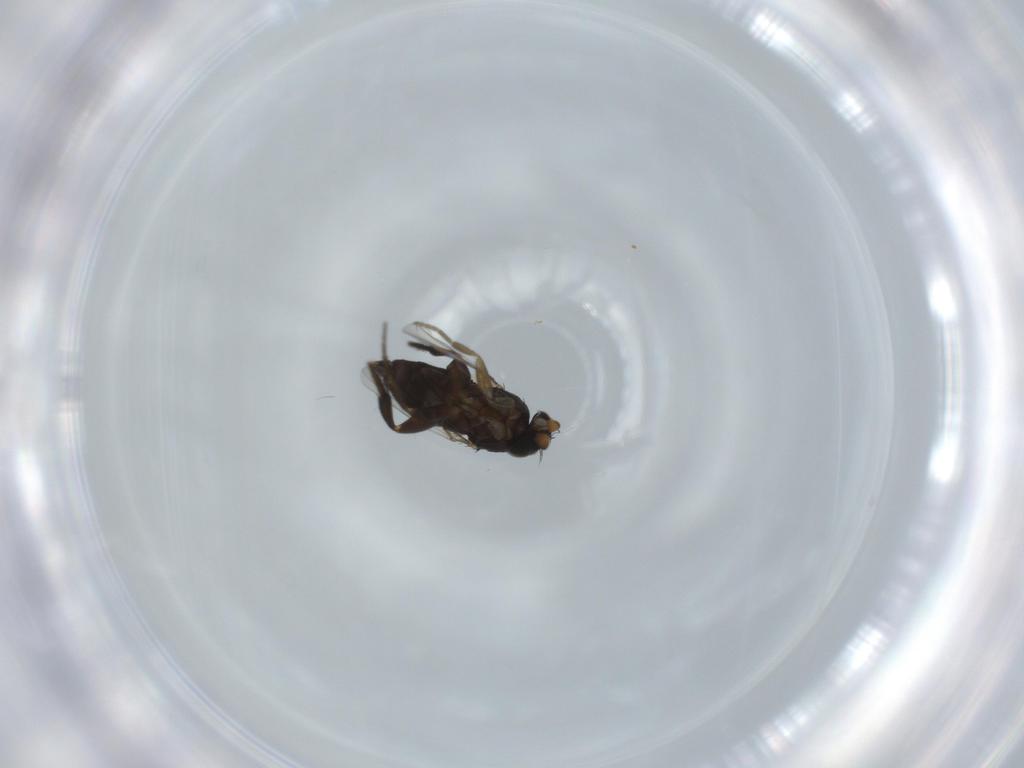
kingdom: Animalia
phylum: Arthropoda
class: Insecta
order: Diptera
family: Phoridae
